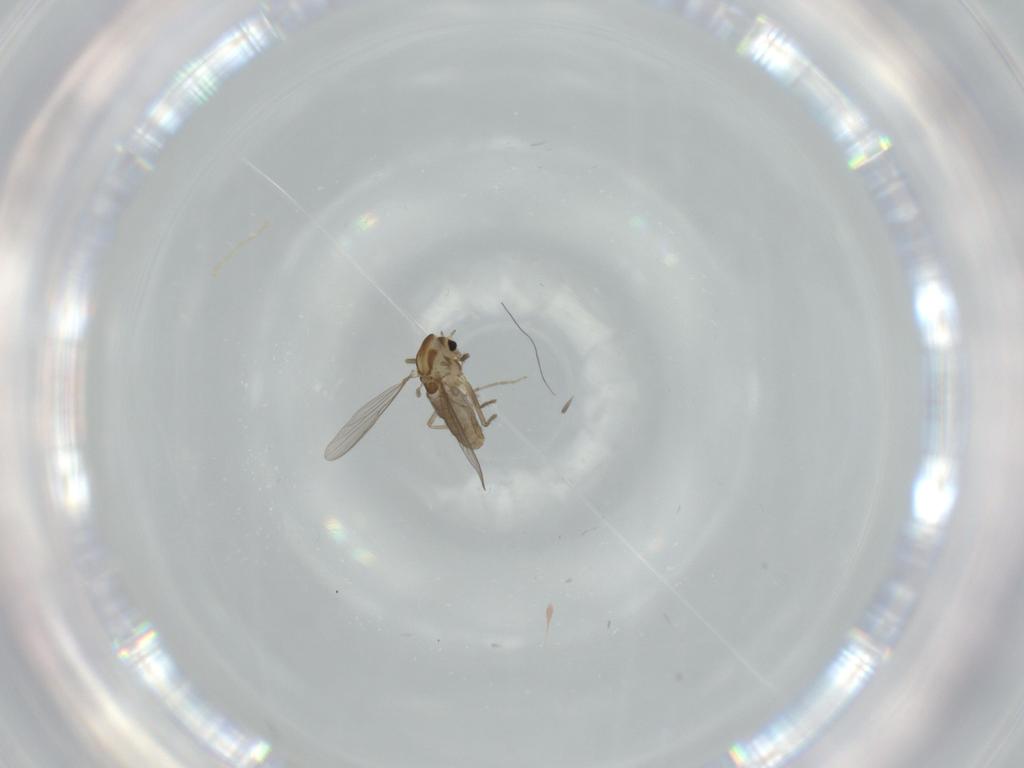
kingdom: Animalia
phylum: Arthropoda
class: Insecta
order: Diptera
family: Chironomidae
